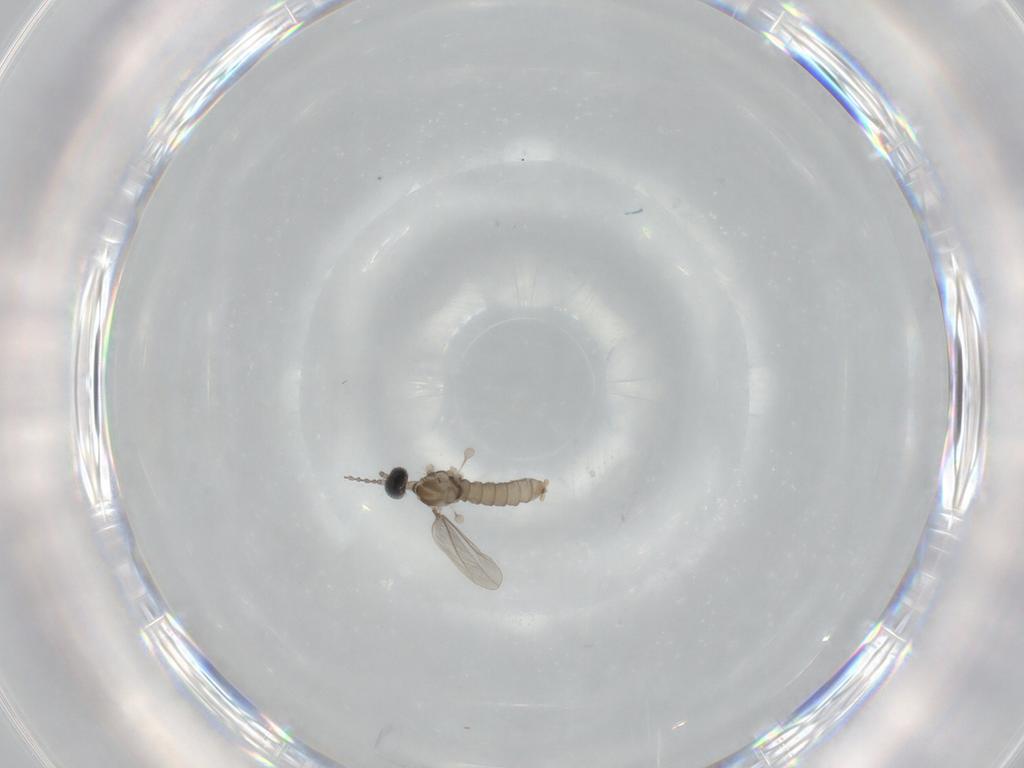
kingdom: Animalia
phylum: Arthropoda
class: Insecta
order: Diptera
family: Cecidomyiidae
